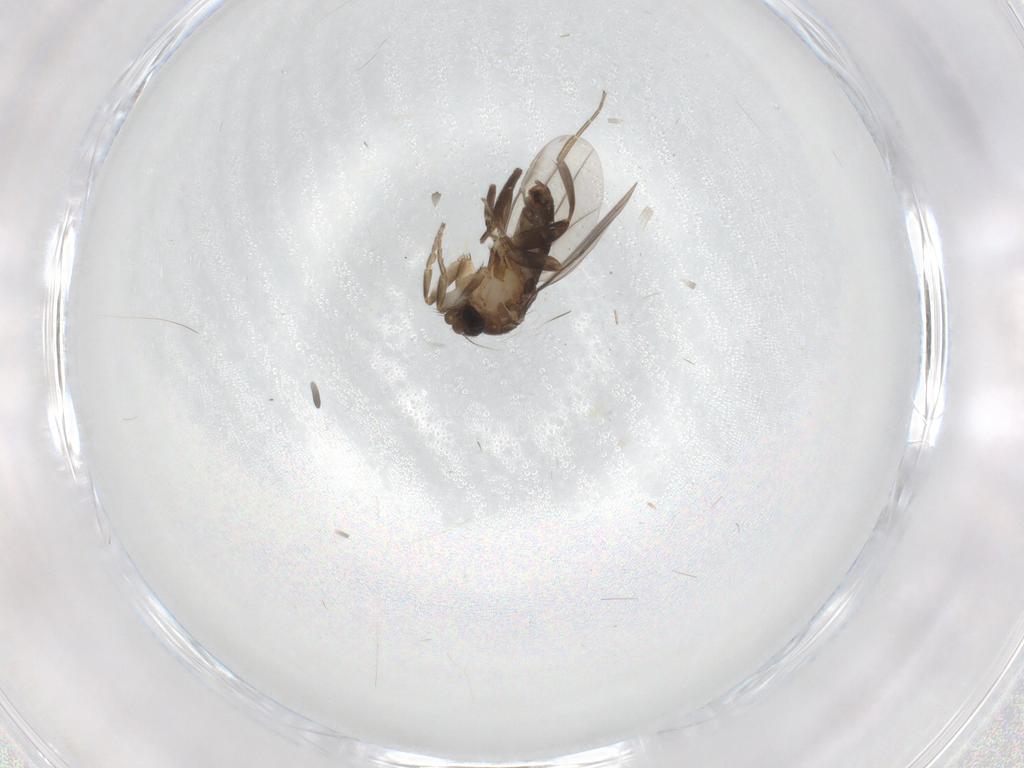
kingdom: Animalia
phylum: Arthropoda
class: Insecta
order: Diptera
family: Phoridae
